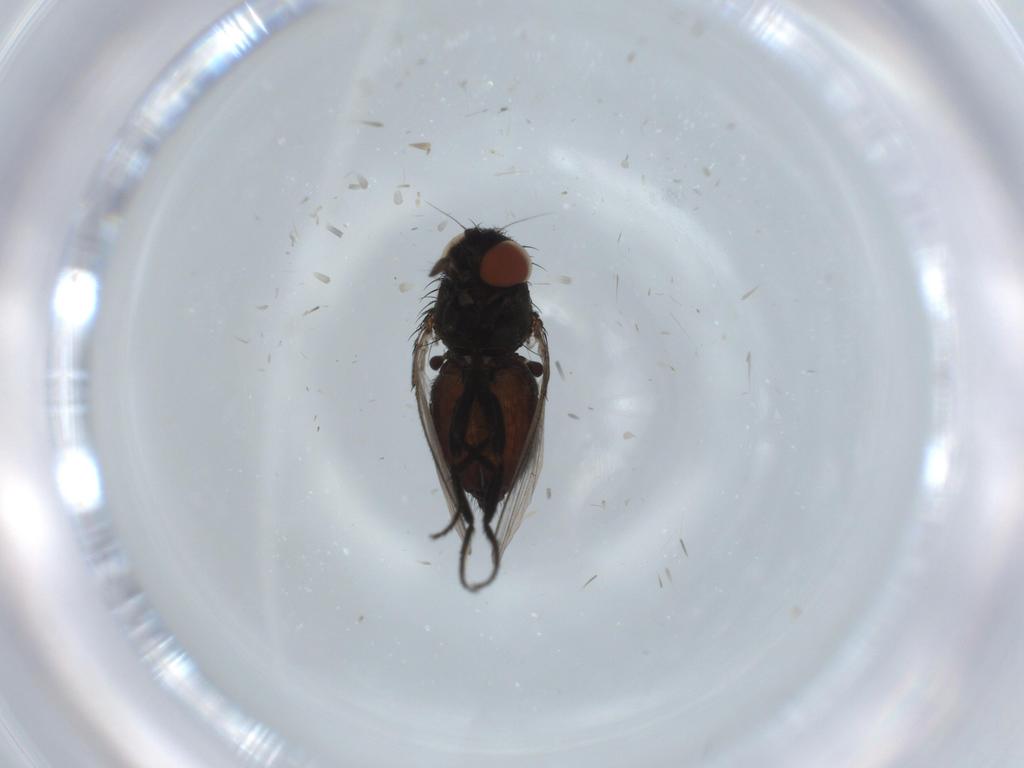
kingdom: Animalia
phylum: Arthropoda
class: Insecta
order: Diptera
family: Milichiidae
